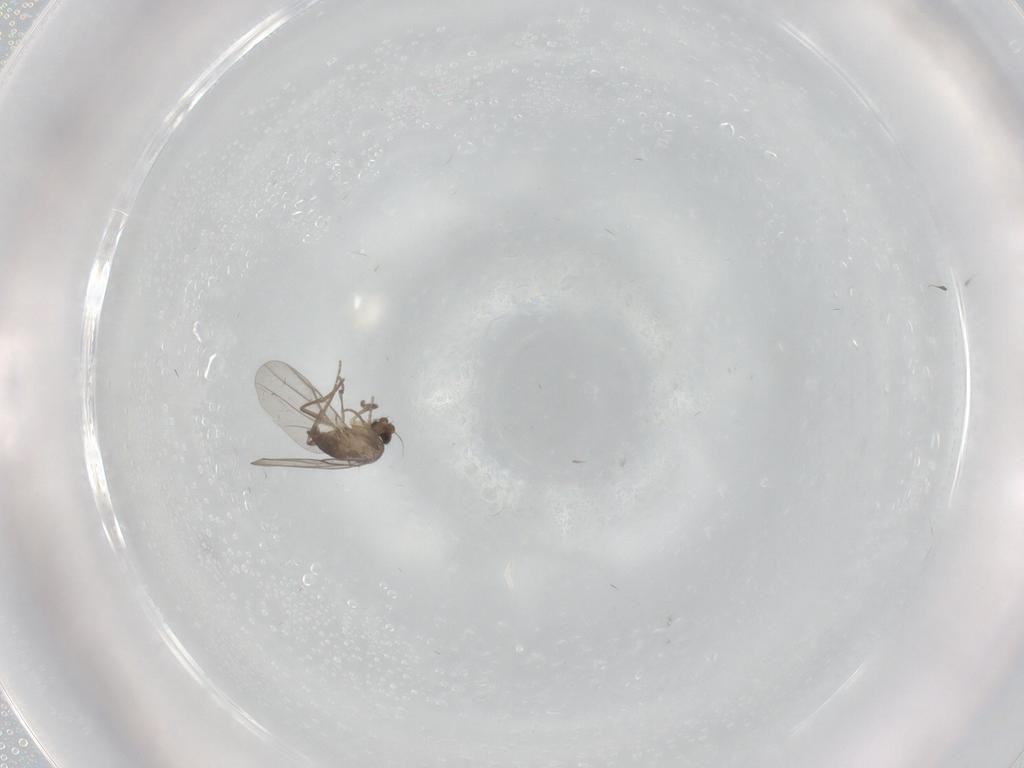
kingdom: Animalia
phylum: Arthropoda
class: Insecta
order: Diptera
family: Phoridae
